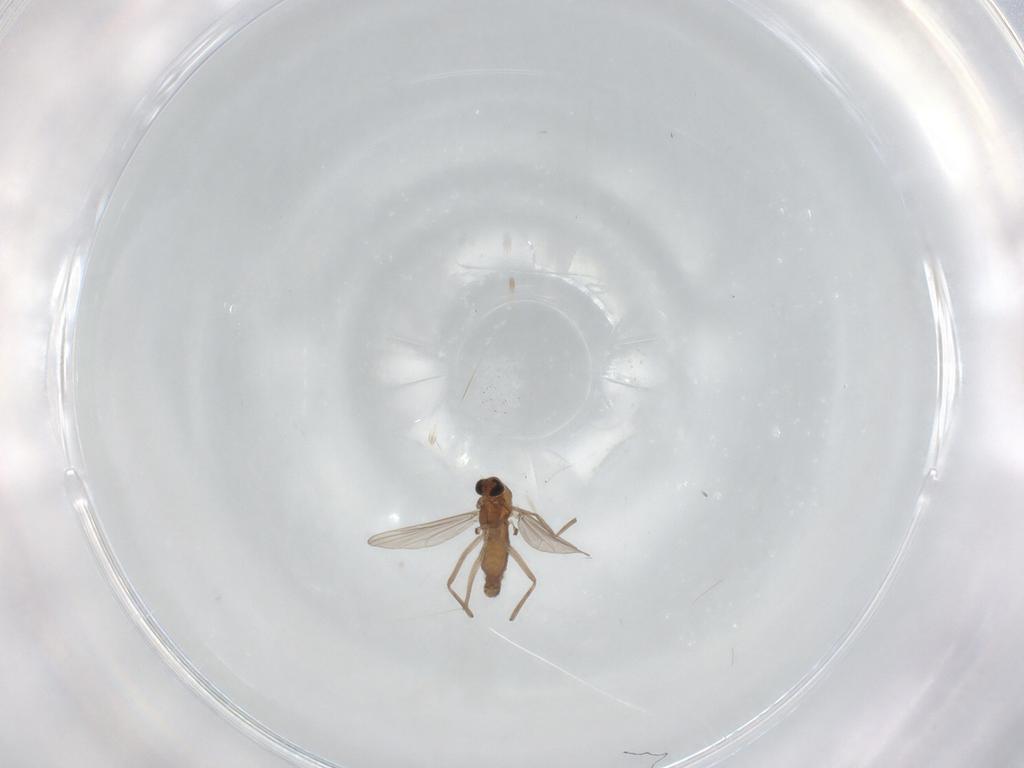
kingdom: Animalia
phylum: Arthropoda
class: Insecta
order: Diptera
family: Chironomidae
